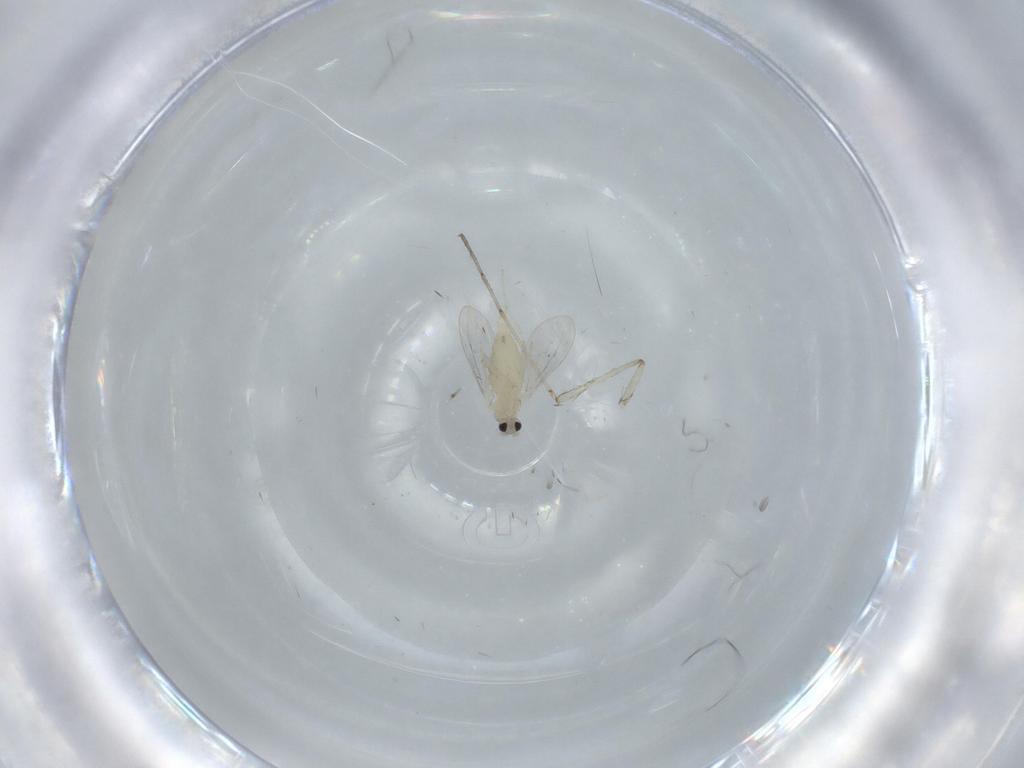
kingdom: Animalia
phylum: Arthropoda
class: Insecta
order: Diptera
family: Cecidomyiidae
